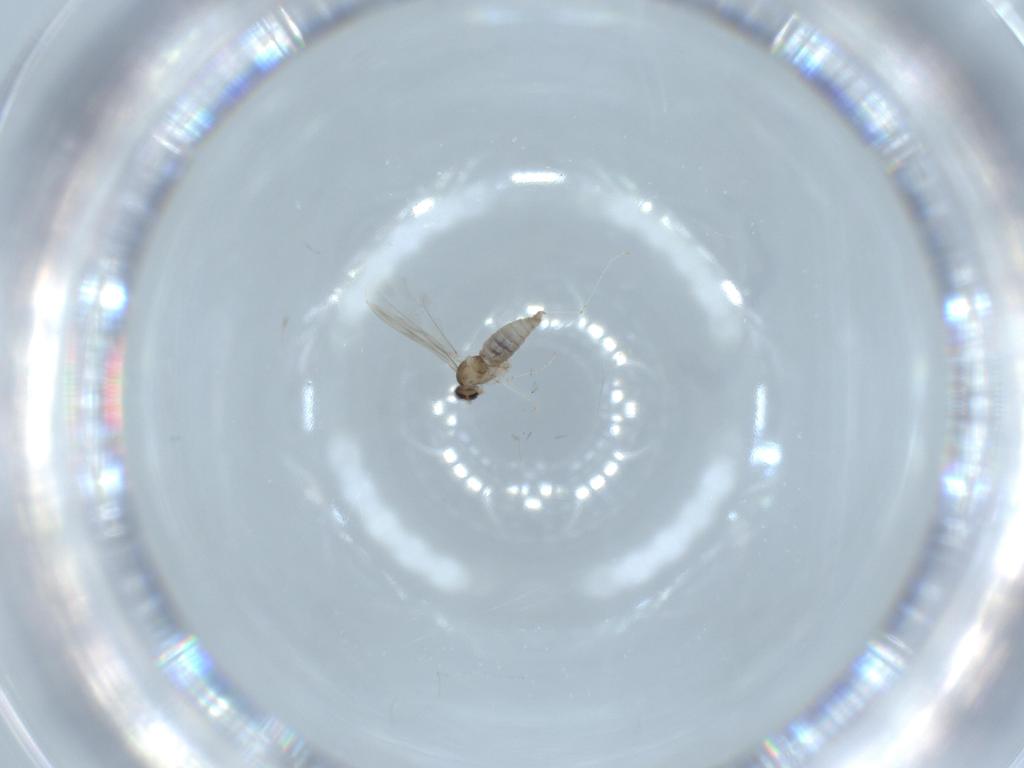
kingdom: Animalia
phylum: Arthropoda
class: Insecta
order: Diptera
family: Cecidomyiidae
